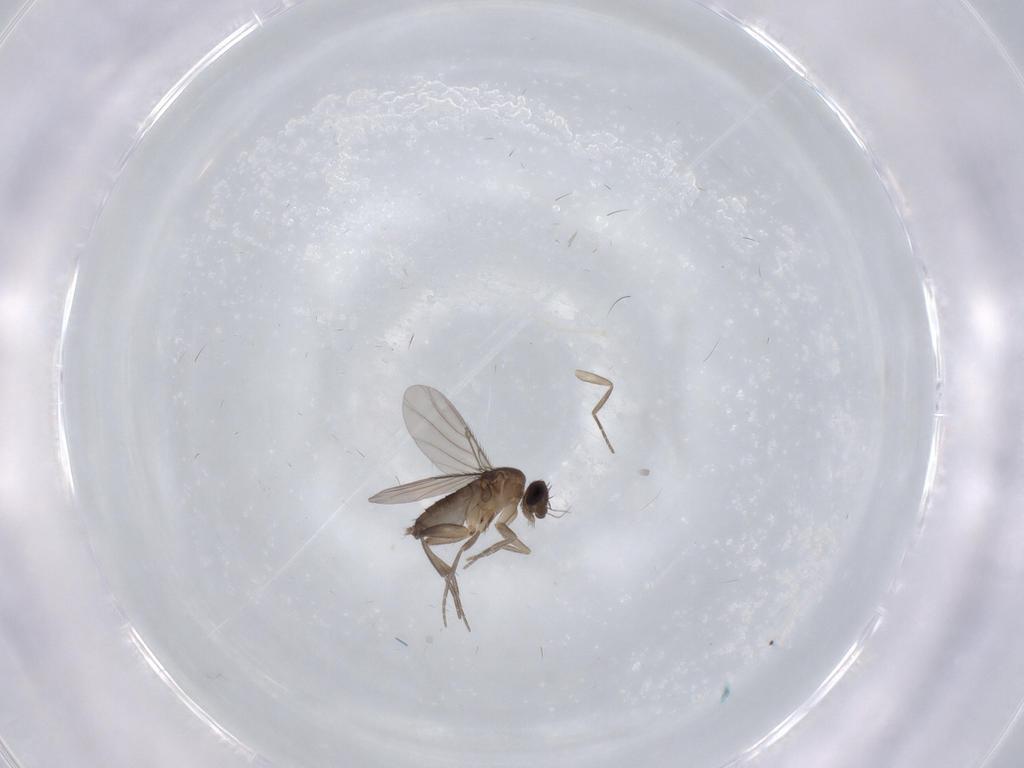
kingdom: Animalia
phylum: Arthropoda
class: Insecta
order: Diptera
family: Phoridae
